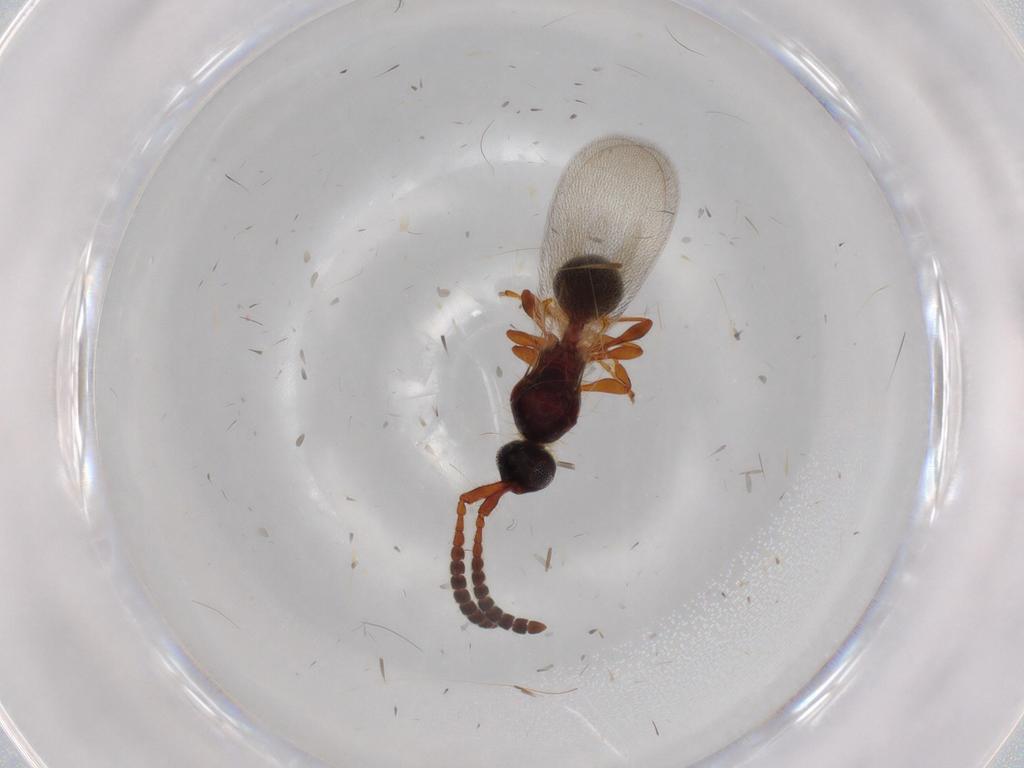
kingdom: Animalia
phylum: Arthropoda
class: Insecta
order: Hymenoptera
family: Diapriidae
